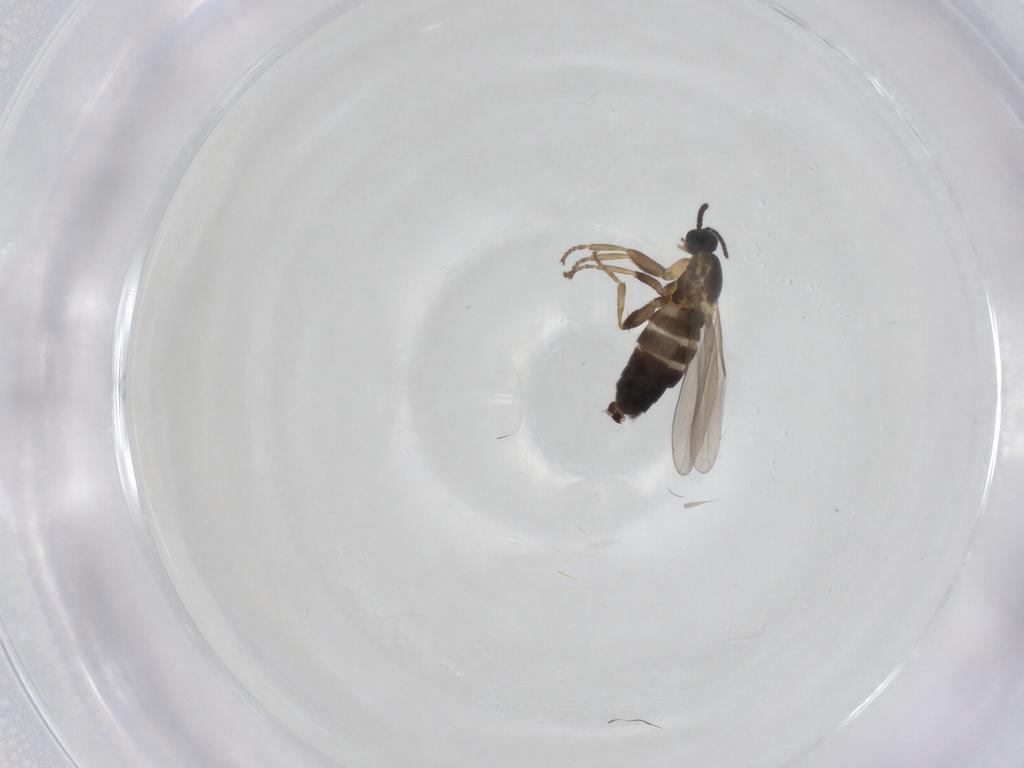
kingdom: Animalia
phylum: Arthropoda
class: Insecta
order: Diptera
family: Scatopsidae
